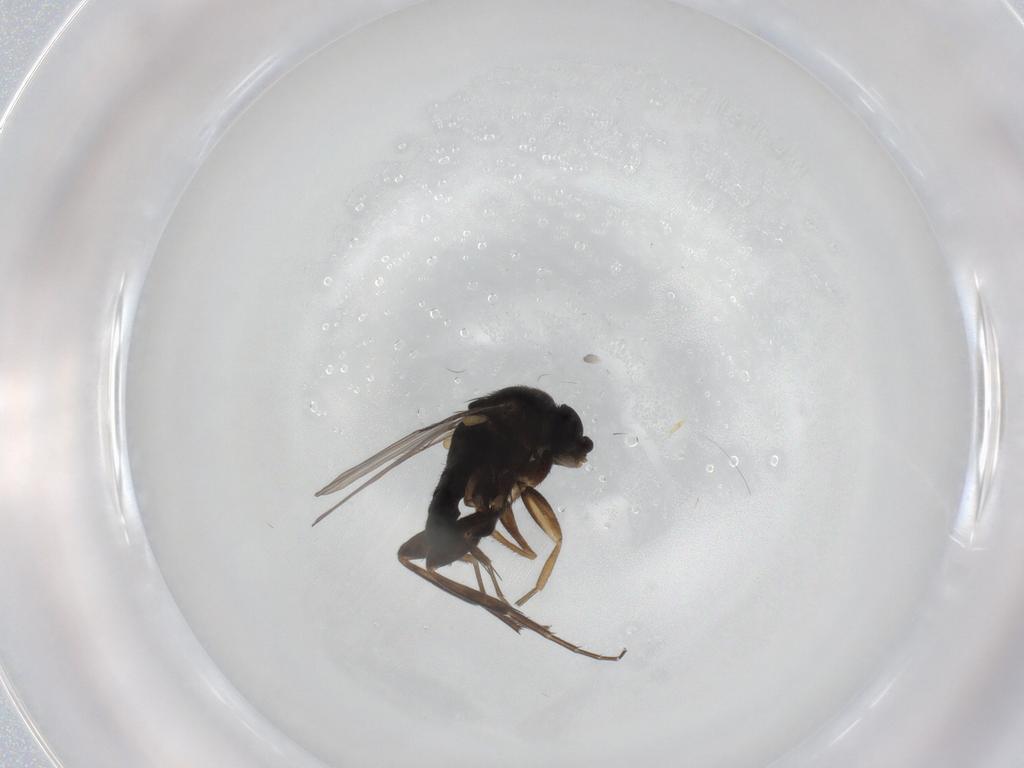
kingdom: Animalia
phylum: Arthropoda
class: Insecta
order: Diptera
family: Phoridae
